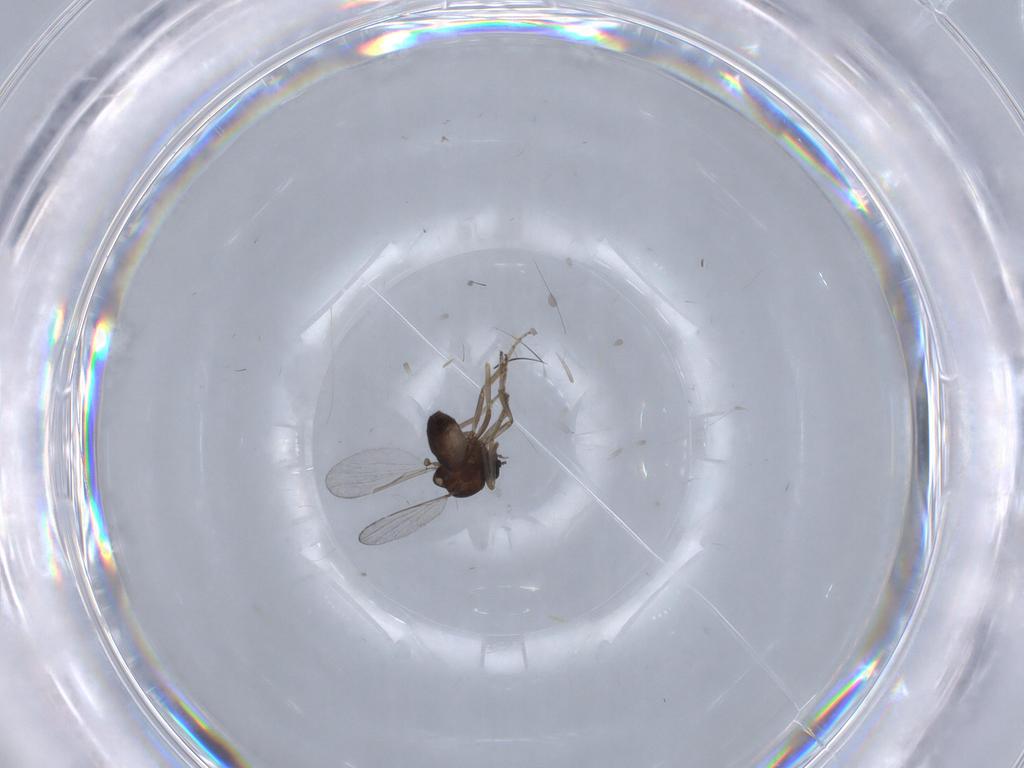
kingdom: Animalia
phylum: Arthropoda
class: Insecta
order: Diptera
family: Ceratopogonidae
